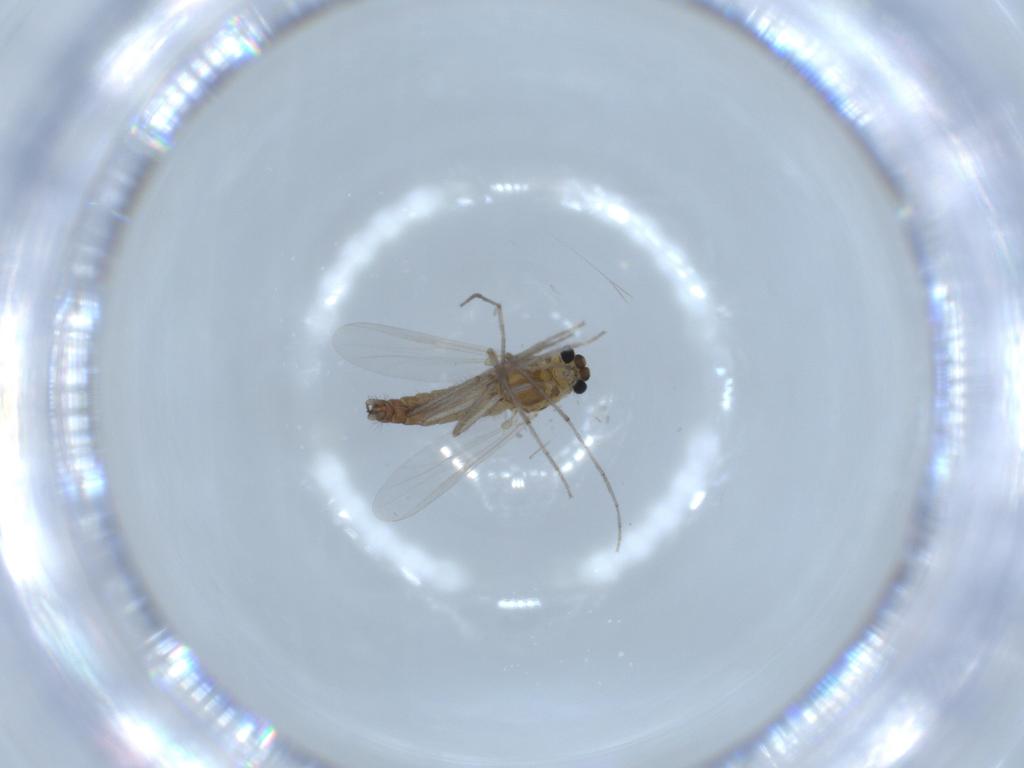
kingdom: Animalia
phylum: Arthropoda
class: Insecta
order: Diptera
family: Chironomidae
